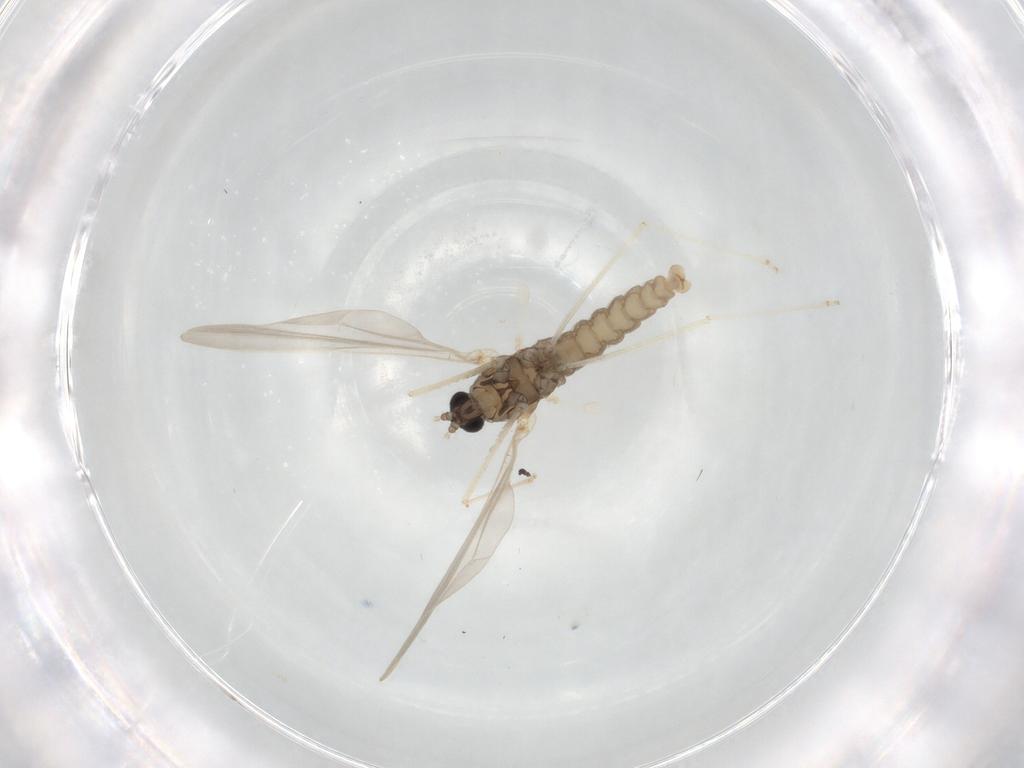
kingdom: Animalia
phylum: Arthropoda
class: Insecta
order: Diptera
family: Cecidomyiidae
